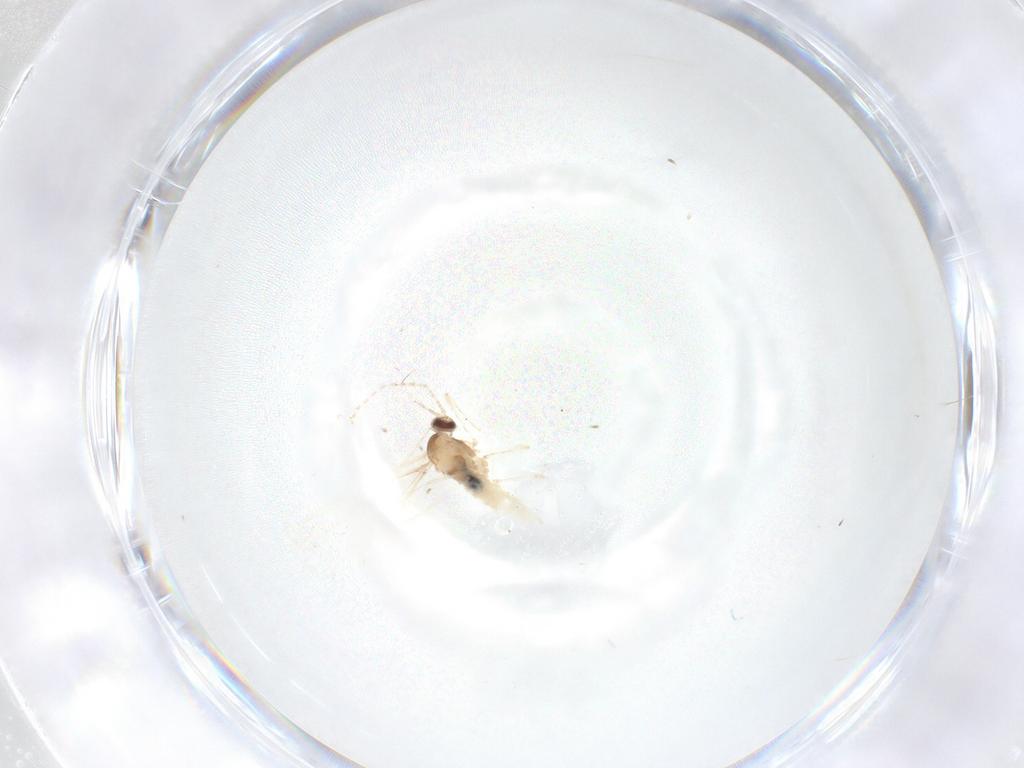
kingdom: Animalia
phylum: Arthropoda
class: Insecta
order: Diptera
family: Cecidomyiidae
